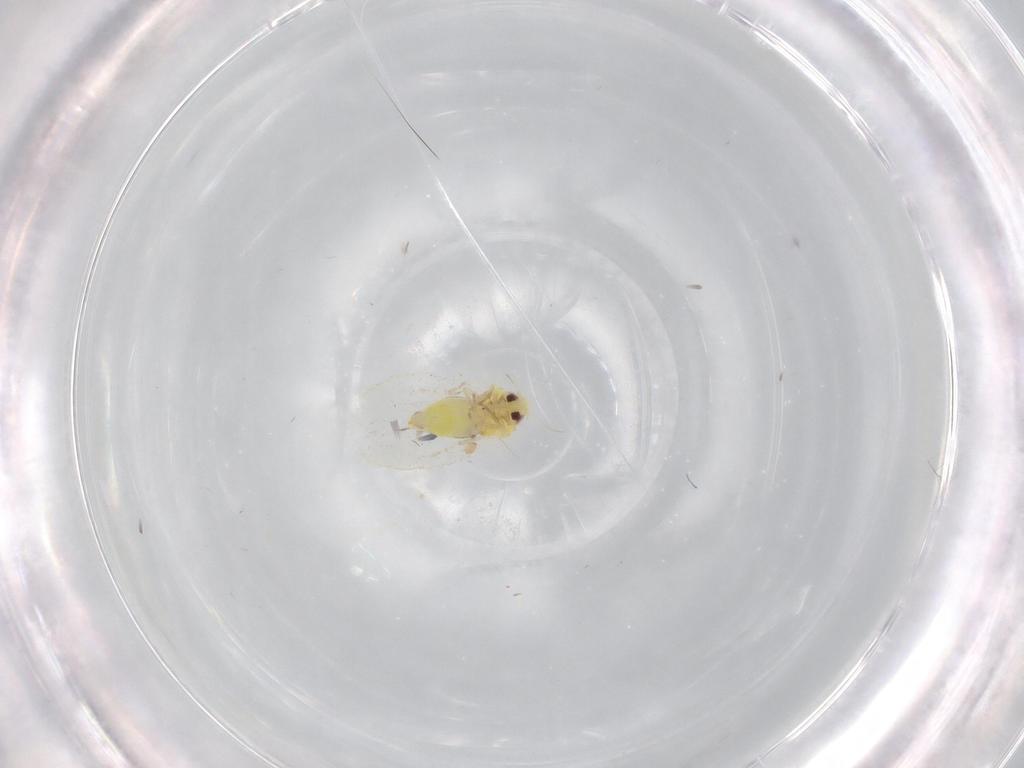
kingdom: Animalia
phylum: Arthropoda
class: Insecta
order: Hemiptera
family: Aleyrodidae
